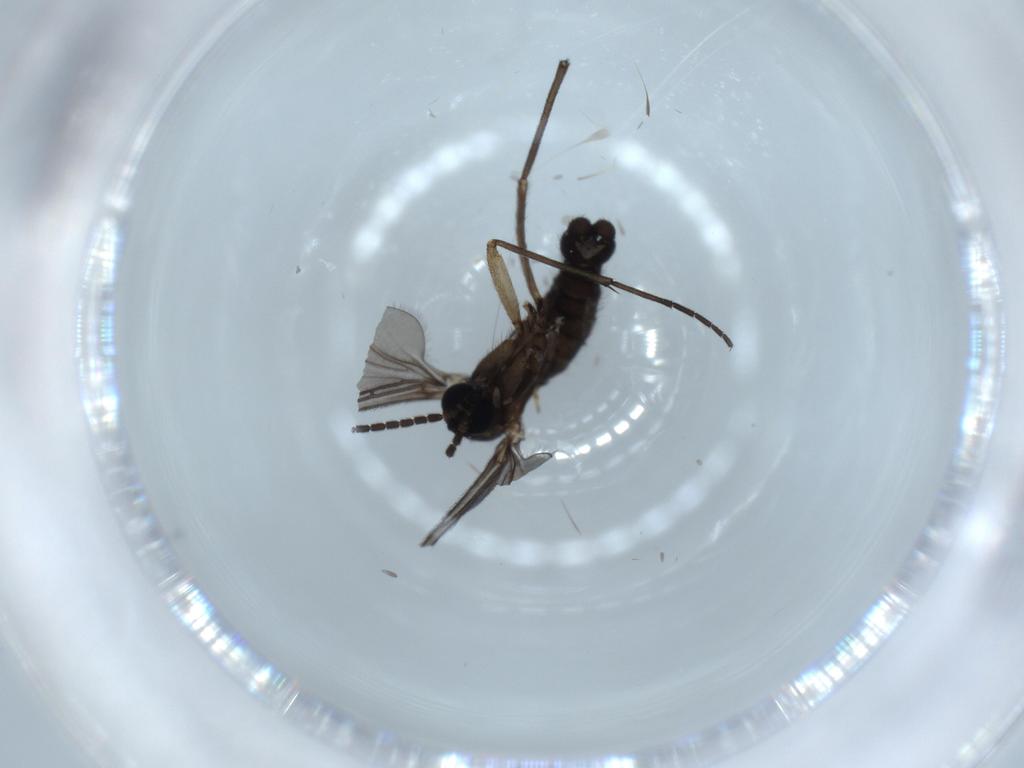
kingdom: Animalia
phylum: Arthropoda
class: Insecta
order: Diptera
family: Sciaridae
